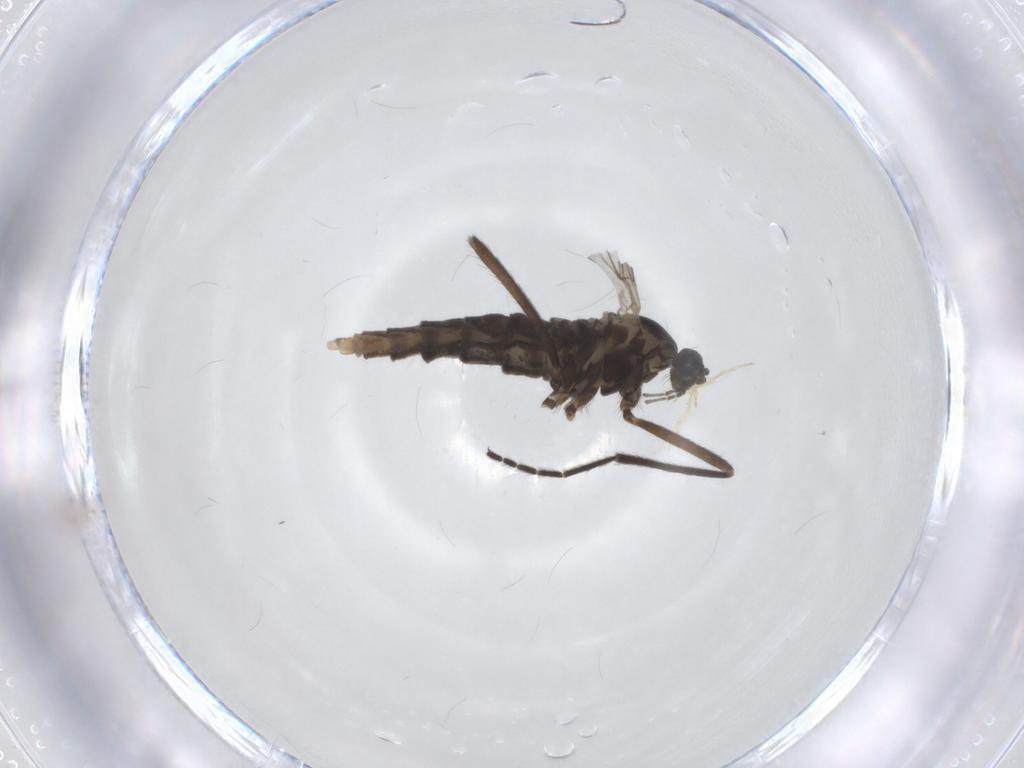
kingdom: Animalia
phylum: Arthropoda
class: Insecta
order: Diptera
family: Cecidomyiidae
